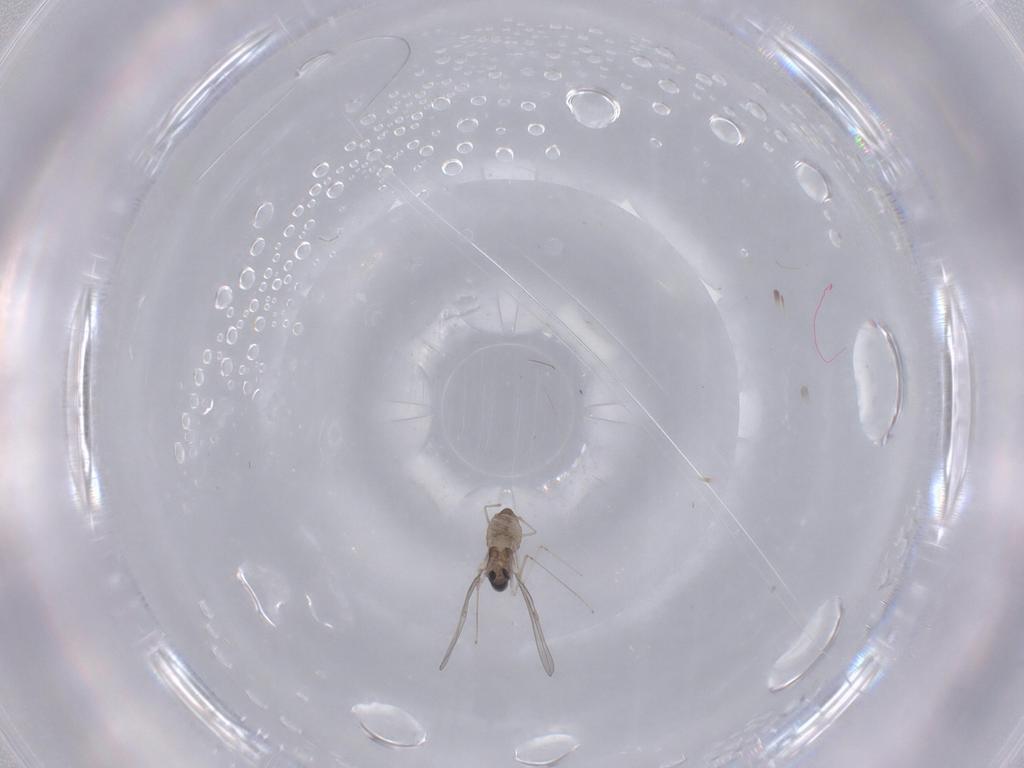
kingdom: Animalia
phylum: Arthropoda
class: Insecta
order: Diptera
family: Cecidomyiidae
